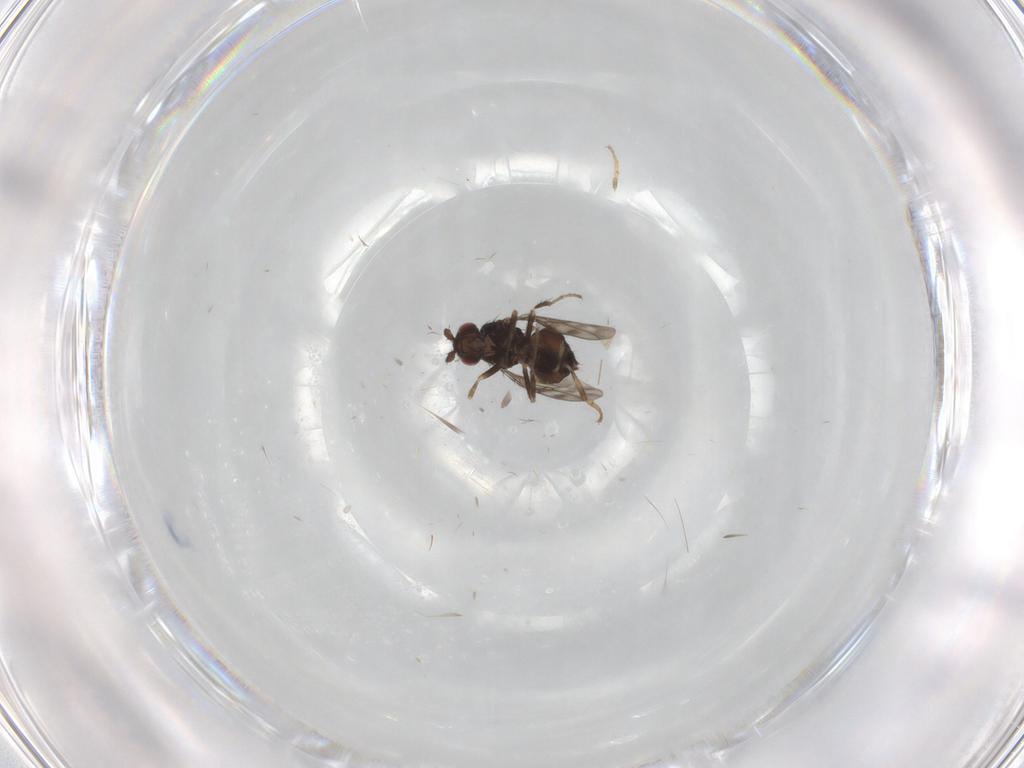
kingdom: Animalia
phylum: Arthropoda
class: Insecta
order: Diptera
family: Sphaeroceridae
